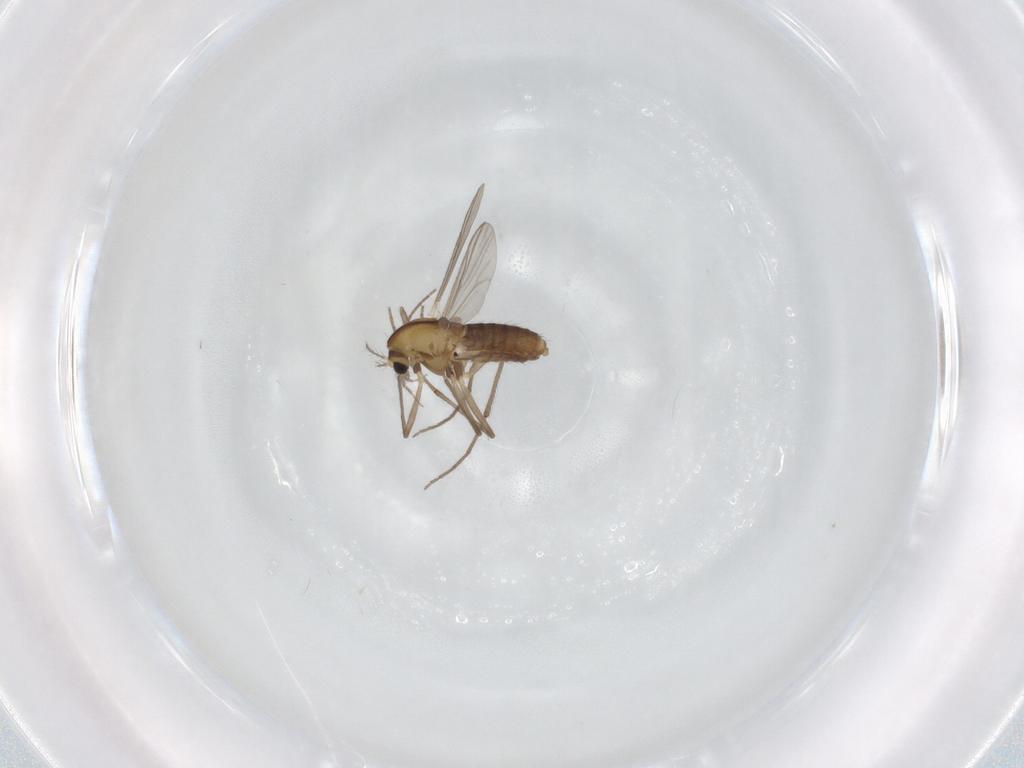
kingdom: Animalia
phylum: Arthropoda
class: Insecta
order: Diptera
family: Chironomidae
